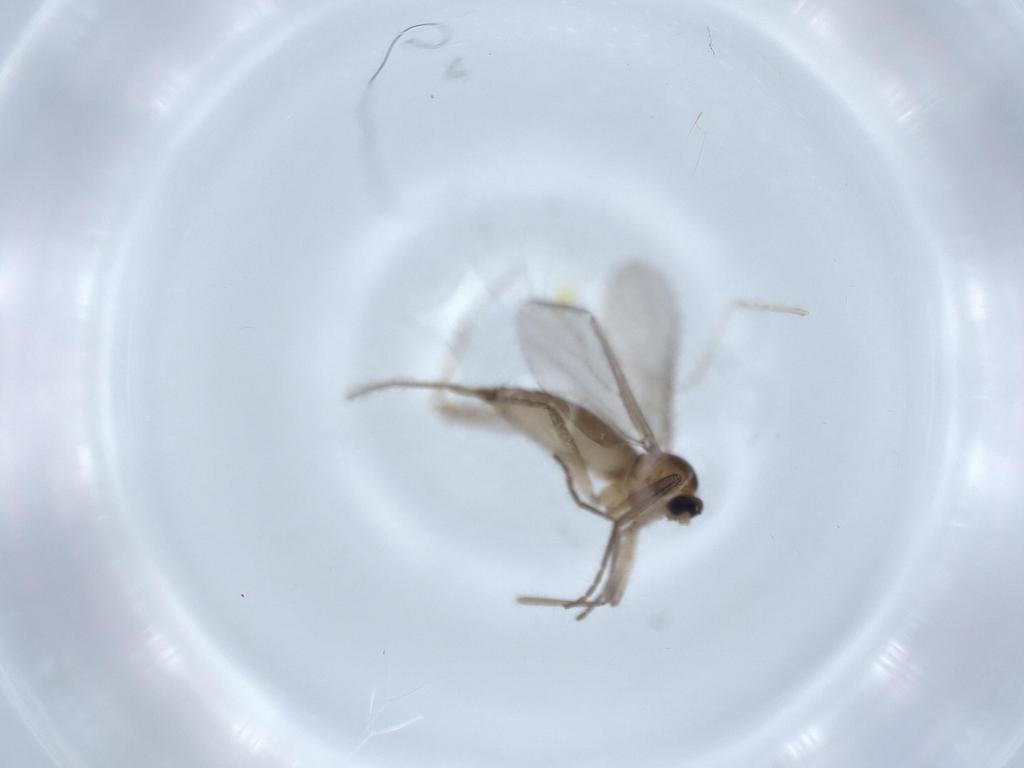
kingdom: Animalia
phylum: Arthropoda
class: Insecta
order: Diptera
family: Chironomidae
